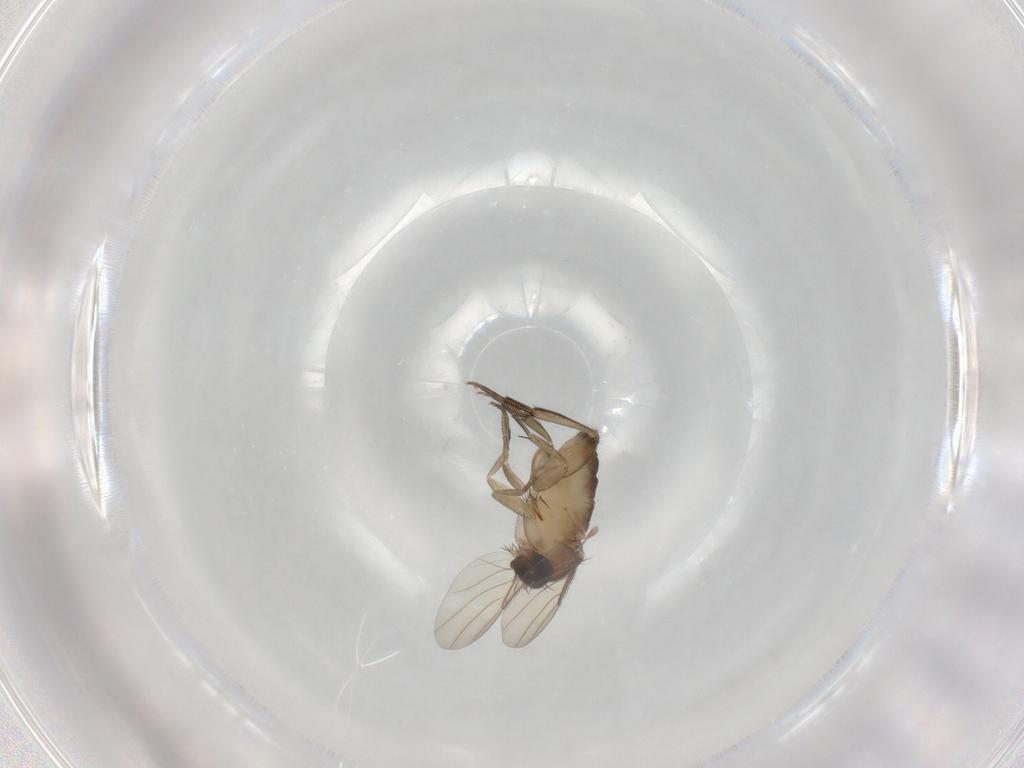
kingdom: Animalia
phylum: Arthropoda
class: Insecta
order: Diptera
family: Phoridae
